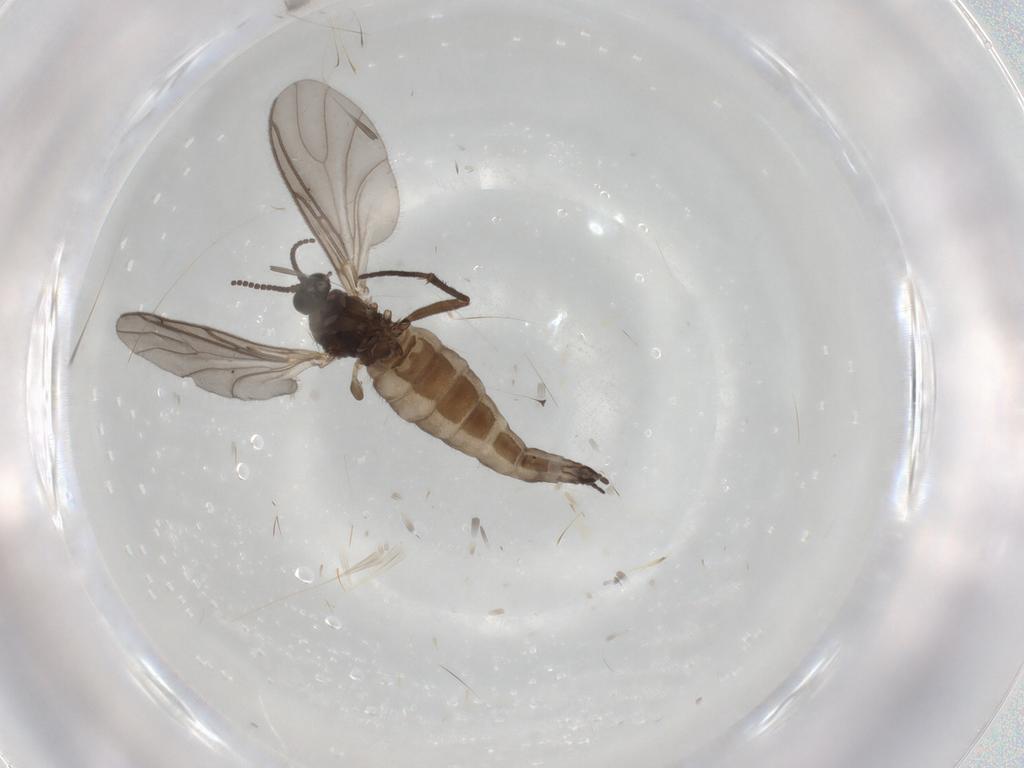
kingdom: Animalia
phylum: Arthropoda
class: Insecta
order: Diptera
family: Sciaridae
